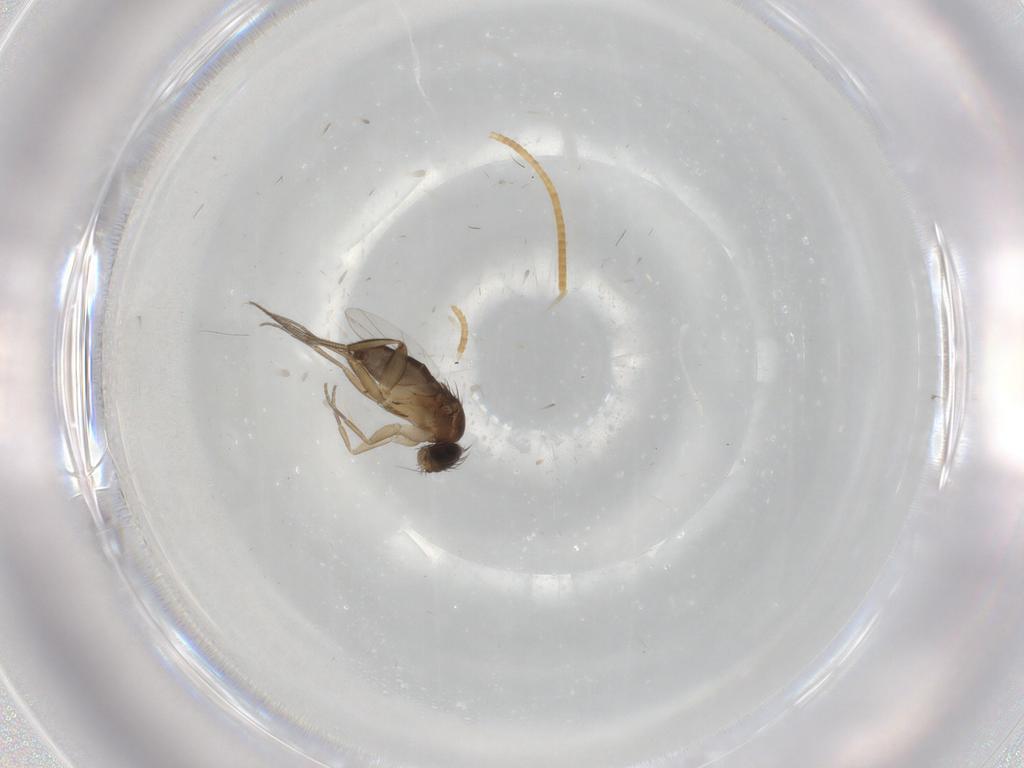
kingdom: Animalia
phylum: Arthropoda
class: Insecta
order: Diptera
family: Phoridae
